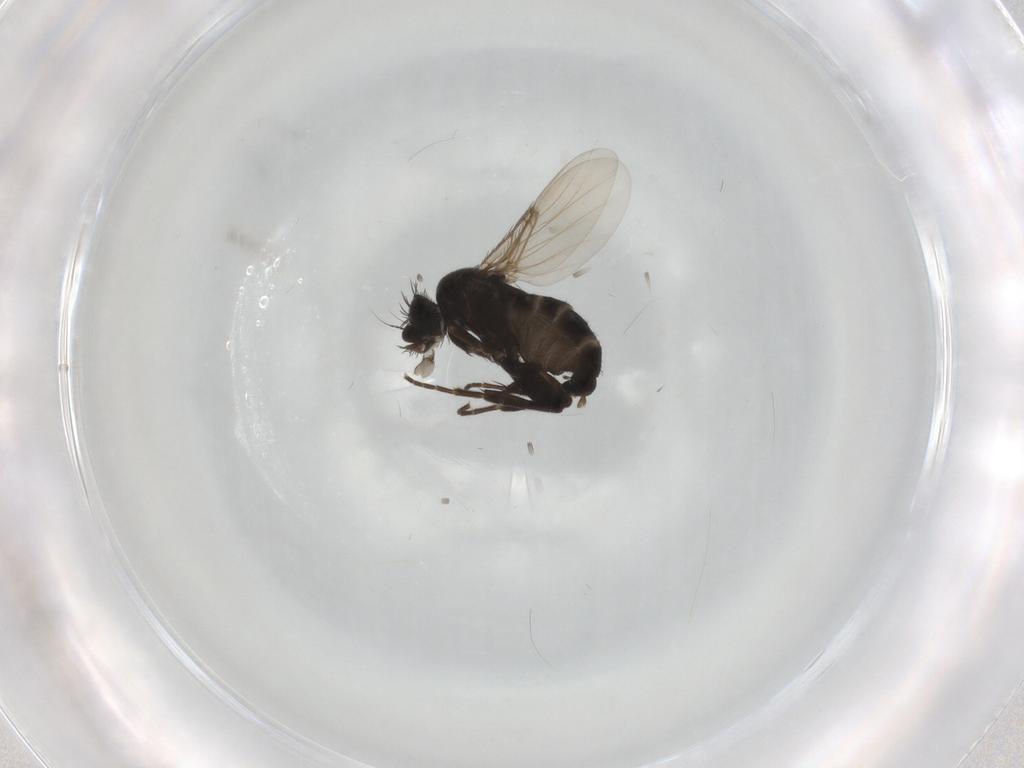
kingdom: Animalia
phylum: Arthropoda
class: Insecta
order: Diptera
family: Phoridae
